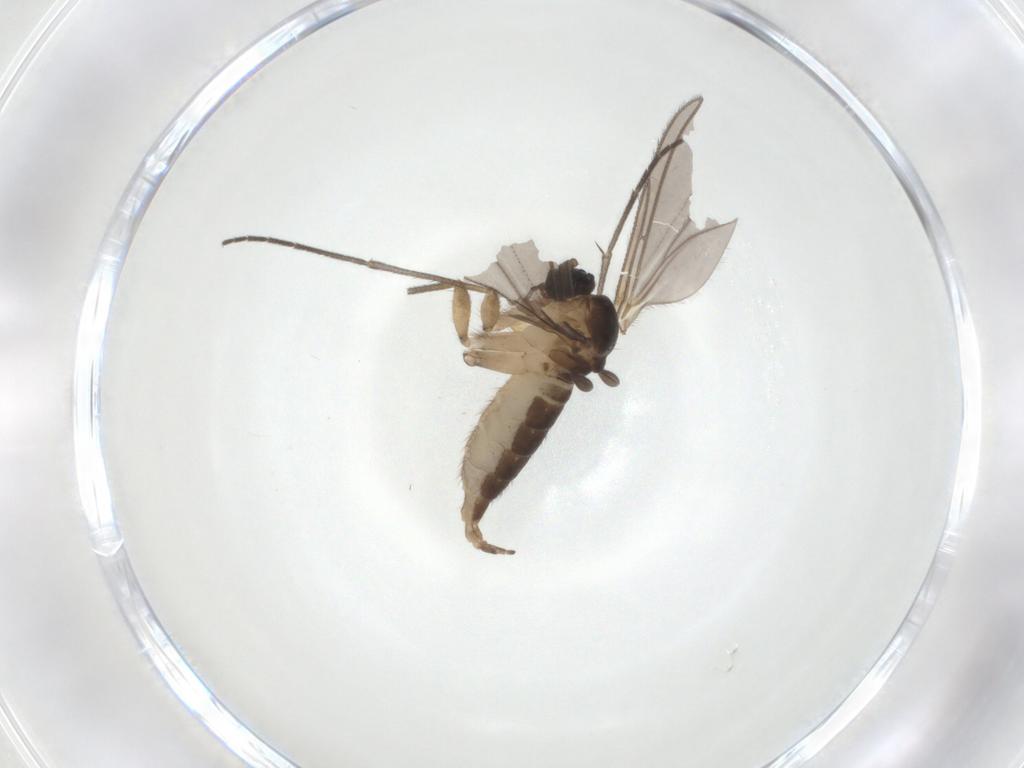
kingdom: Animalia
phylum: Arthropoda
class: Insecta
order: Diptera
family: Sciaridae
